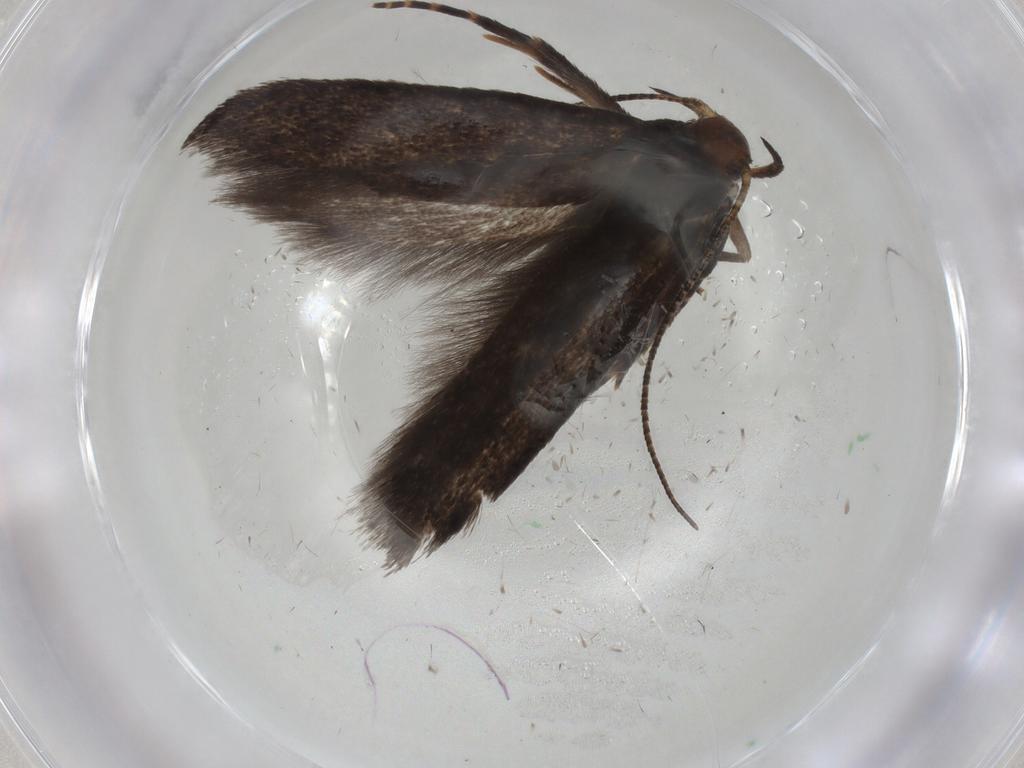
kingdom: Animalia
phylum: Arthropoda
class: Insecta
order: Lepidoptera
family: Gelechiidae
